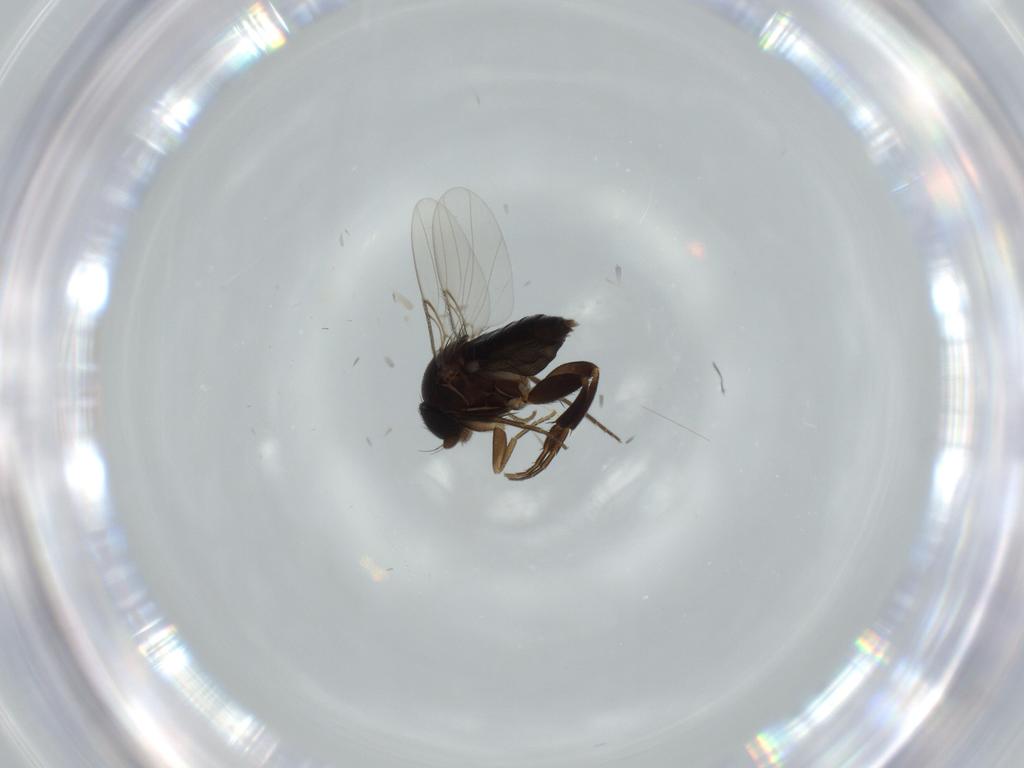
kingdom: Animalia
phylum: Arthropoda
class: Insecta
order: Diptera
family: Phoridae
